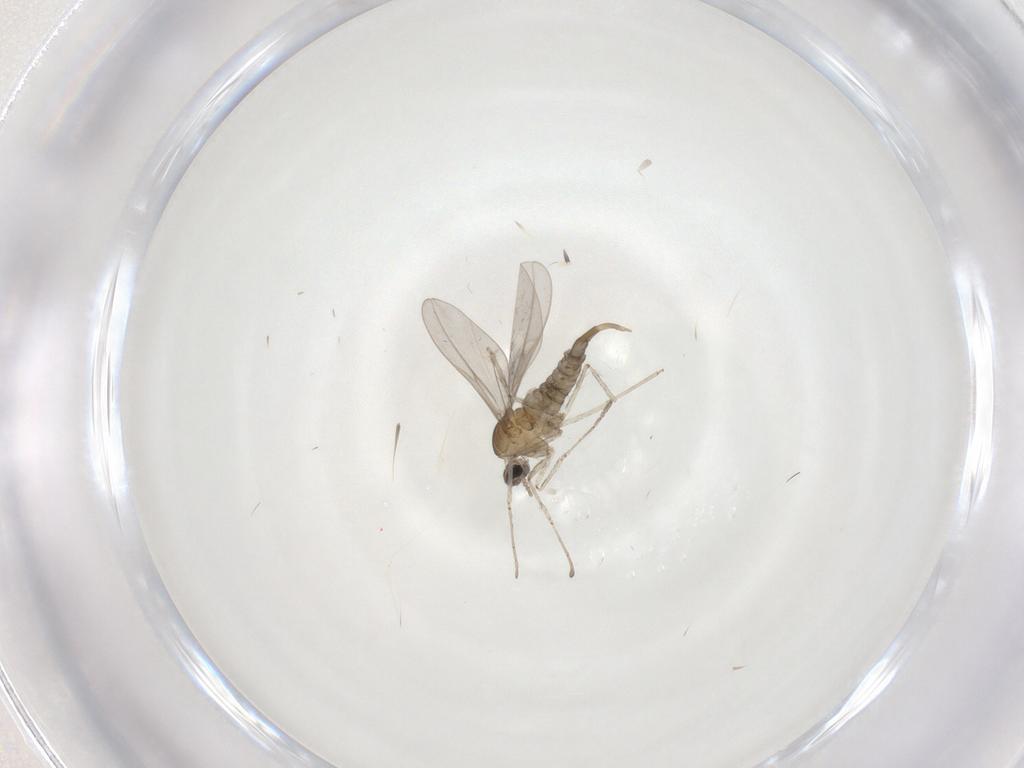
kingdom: Animalia
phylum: Arthropoda
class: Insecta
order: Diptera
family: Cecidomyiidae
